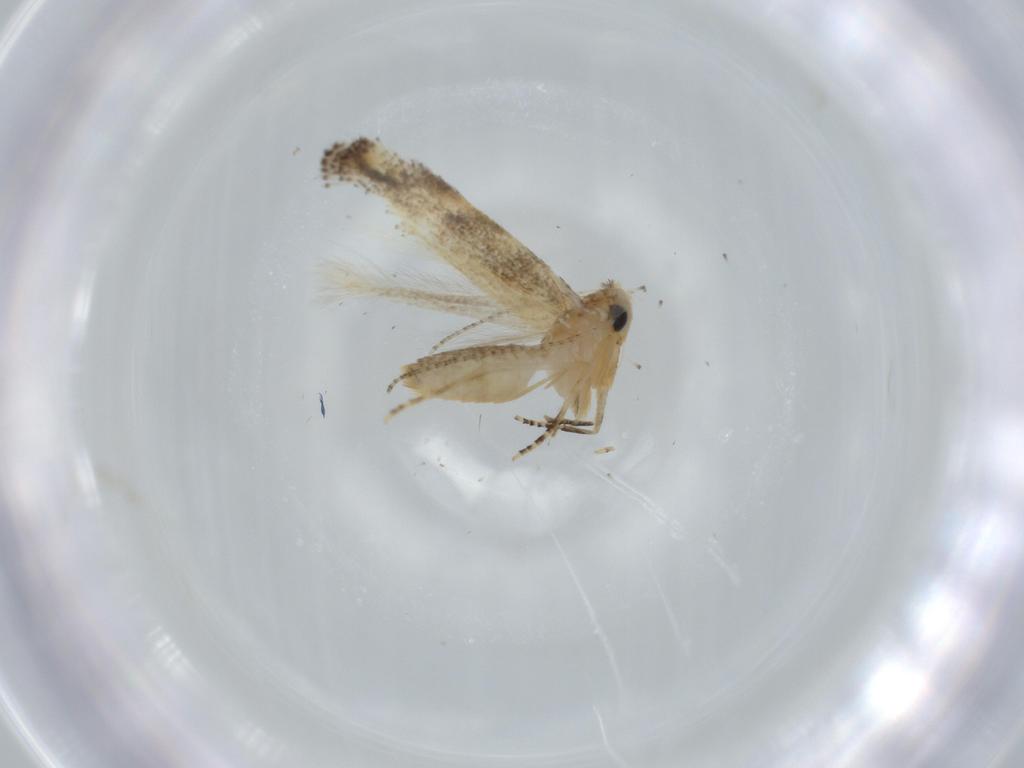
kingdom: Animalia
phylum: Arthropoda
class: Insecta
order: Lepidoptera
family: Bucculatricidae
